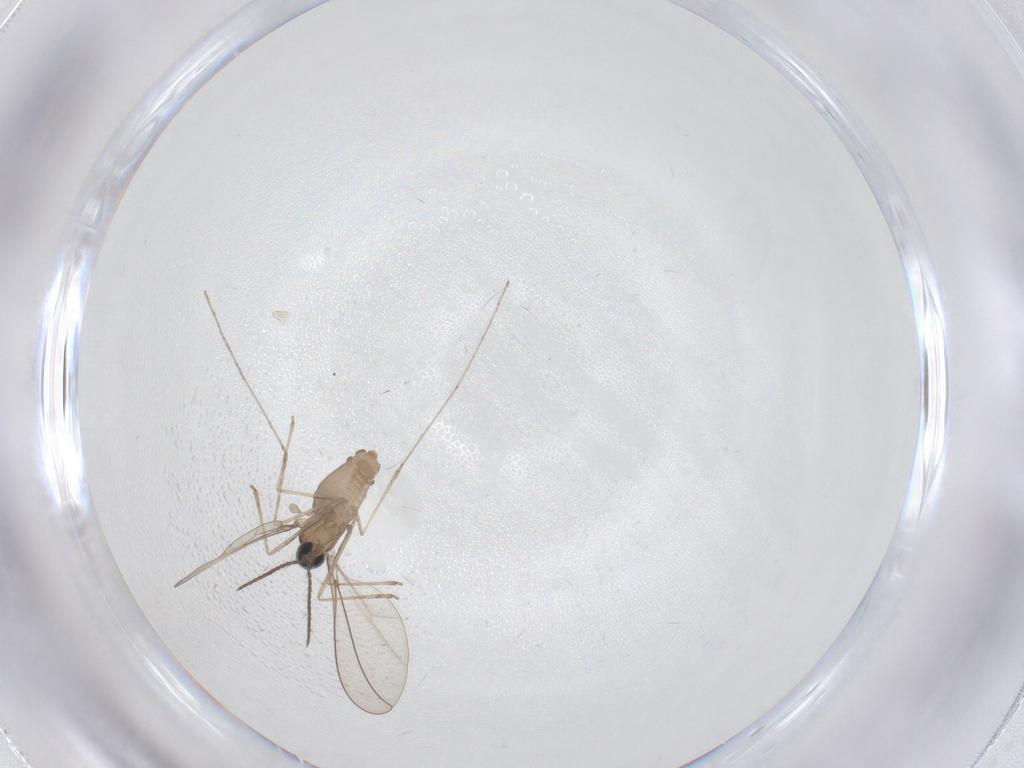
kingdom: Animalia
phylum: Arthropoda
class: Insecta
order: Diptera
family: Cecidomyiidae
